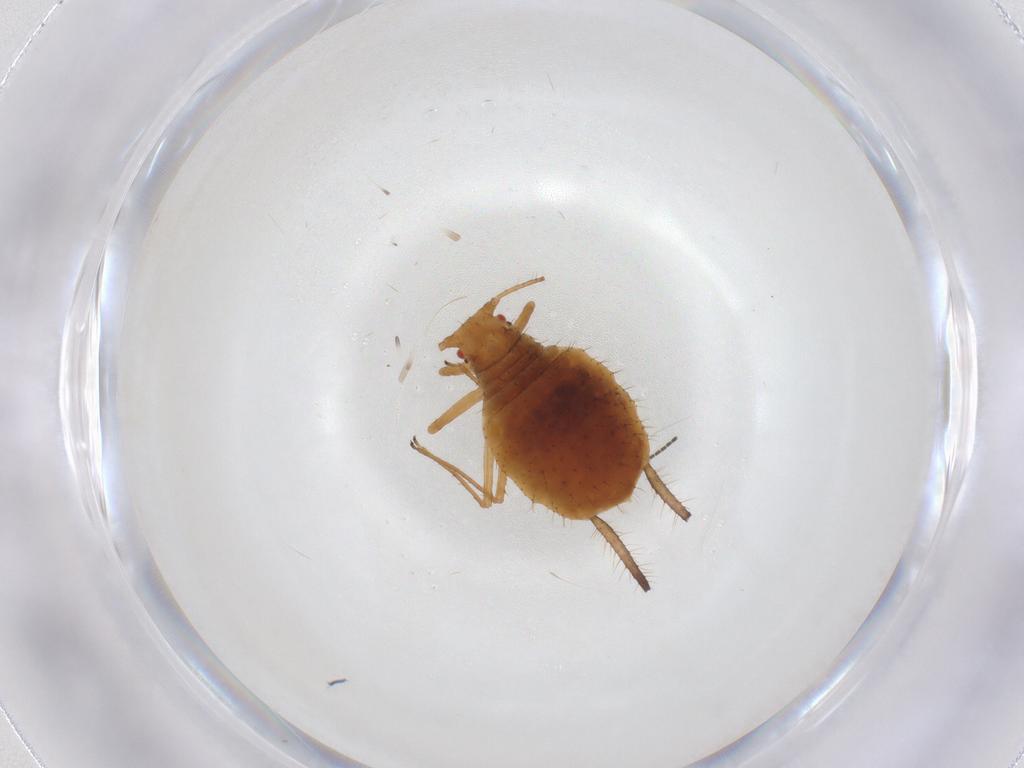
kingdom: Animalia
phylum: Arthropoda
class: Insecta
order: Hemiptera
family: Aphididae
